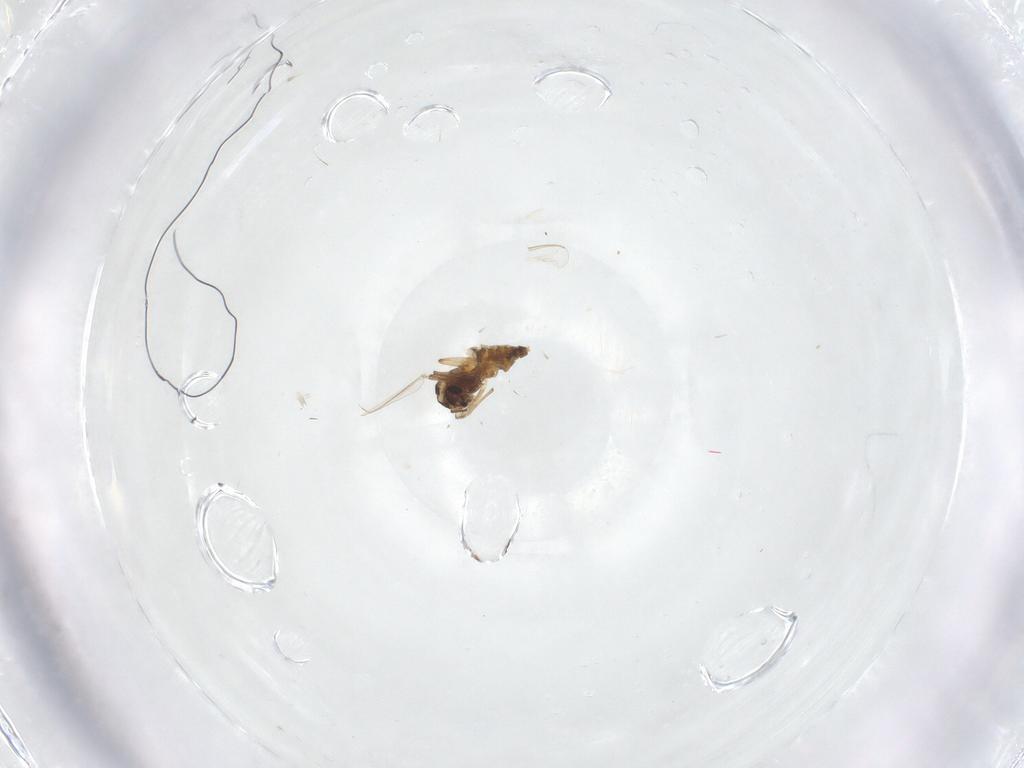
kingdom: Animalia
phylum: Arthropoda
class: Insecta
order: Diptera
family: Chironomidae
